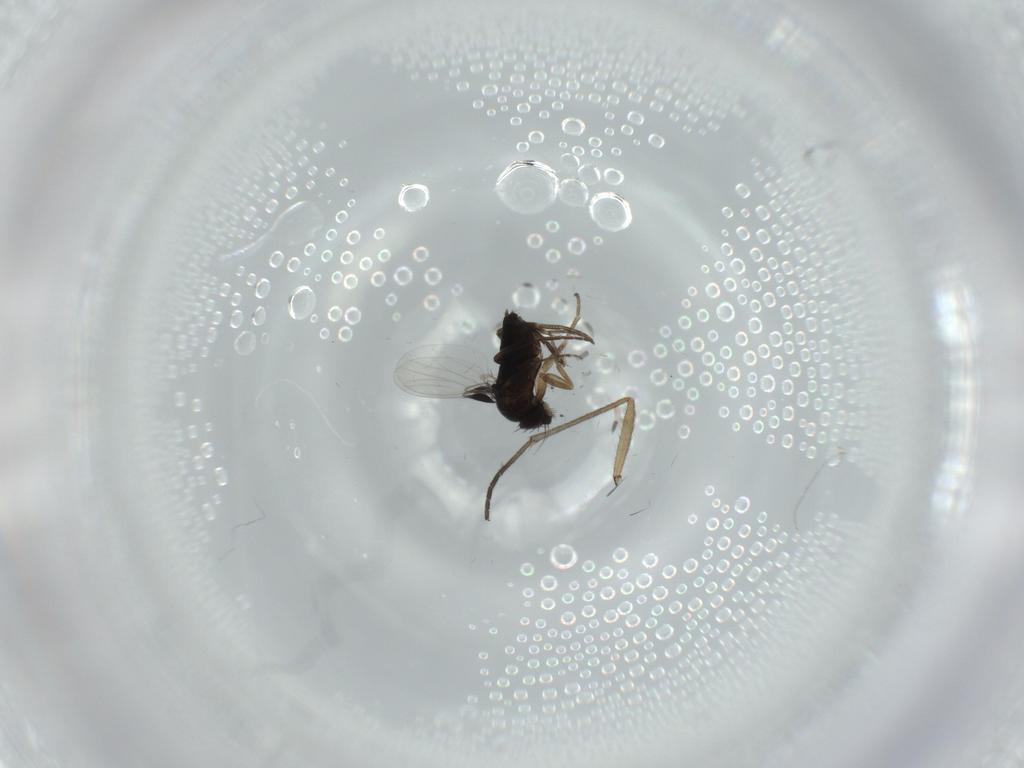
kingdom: Animalia
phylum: Arthropoda
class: Insecta
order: Diptera
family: Phoridae
